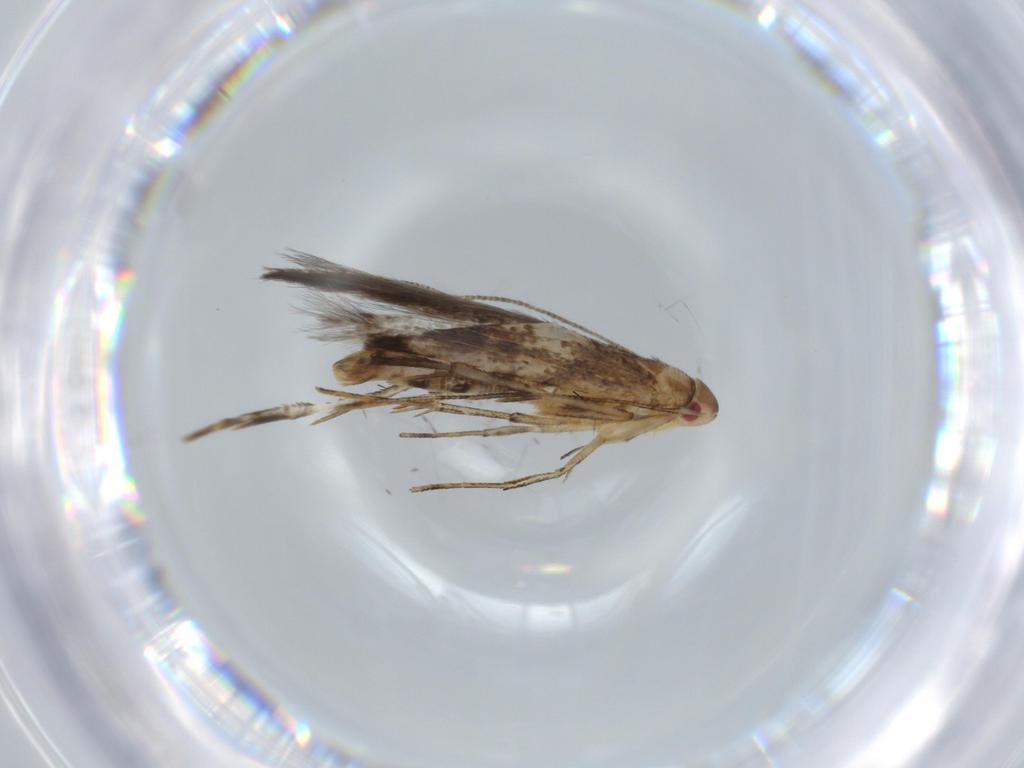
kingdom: Animalia
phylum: Arthropoda
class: Insecta
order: Lepidoptera
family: Cosmopterigidae
